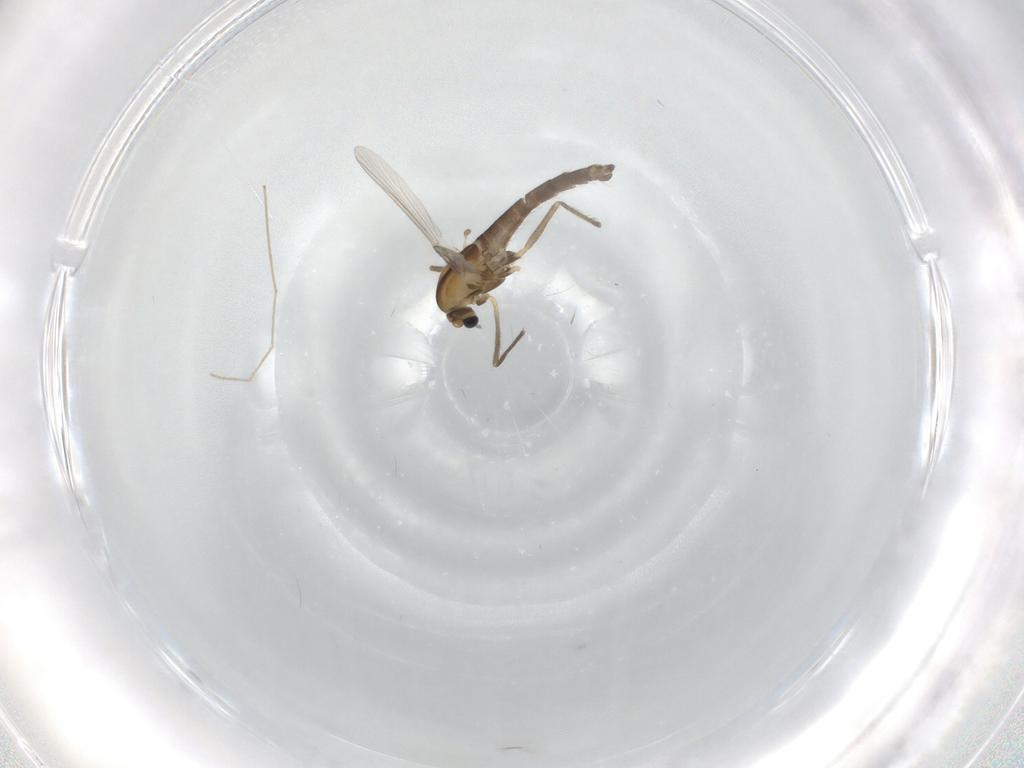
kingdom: Animalia
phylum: Arthropoda
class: Insecta
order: Diptera
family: Chironomidae
